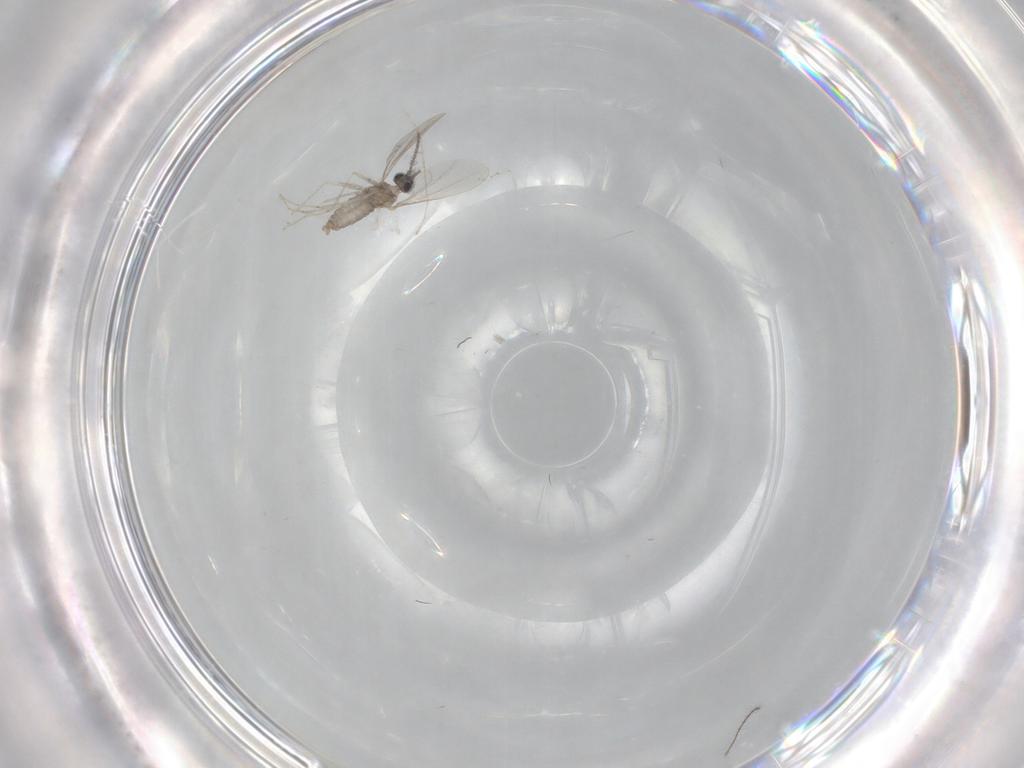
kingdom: Animalia
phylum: Arthropoda
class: Insecta
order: Diptera
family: Cecidomyiidae
